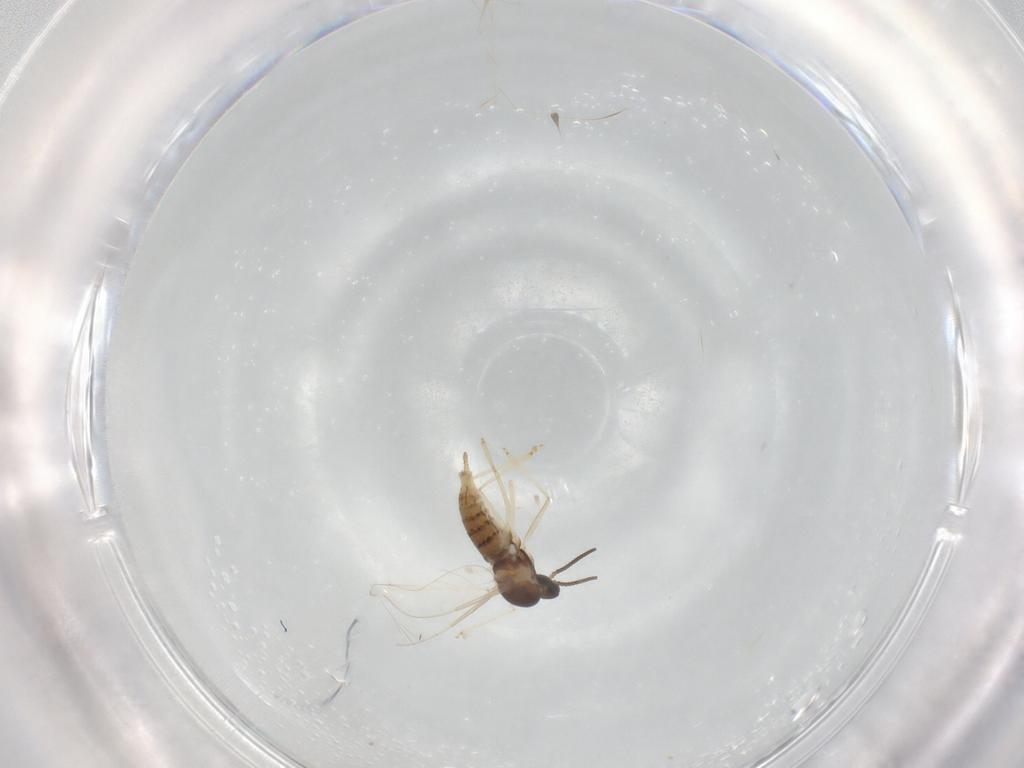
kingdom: Animalia
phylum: Arthropoda
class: Insecta
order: Diptera
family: Cecidomyiidae
